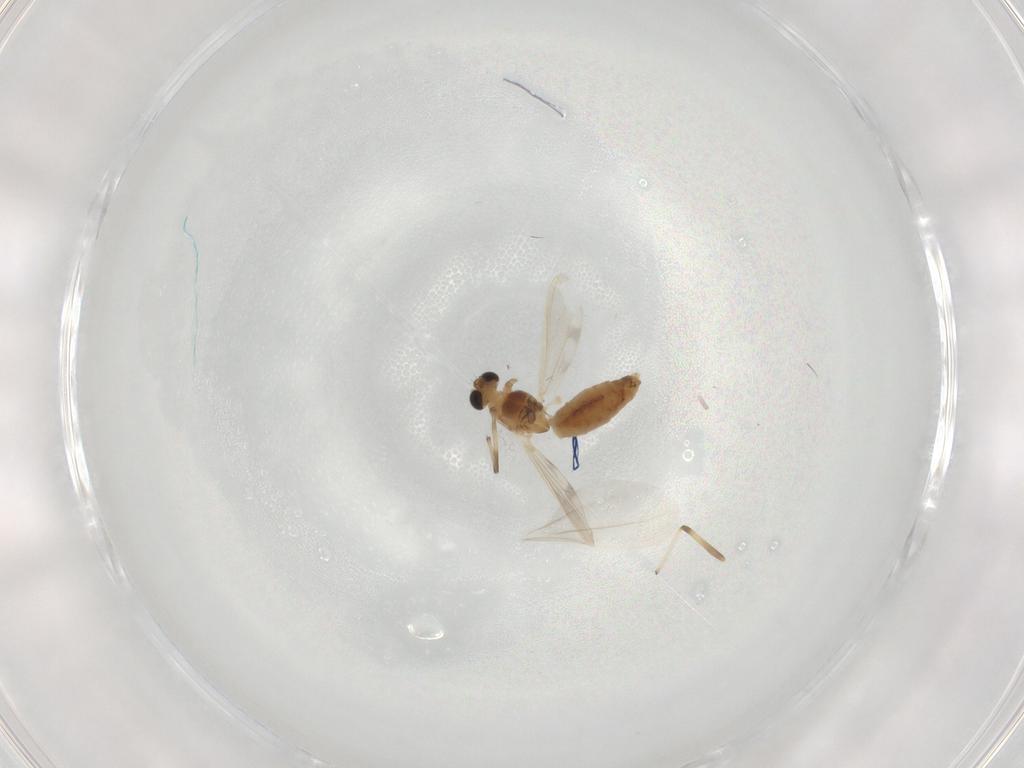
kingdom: Animalia
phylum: Arthropoda
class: Insecta
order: Diptera
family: Chironomidae
